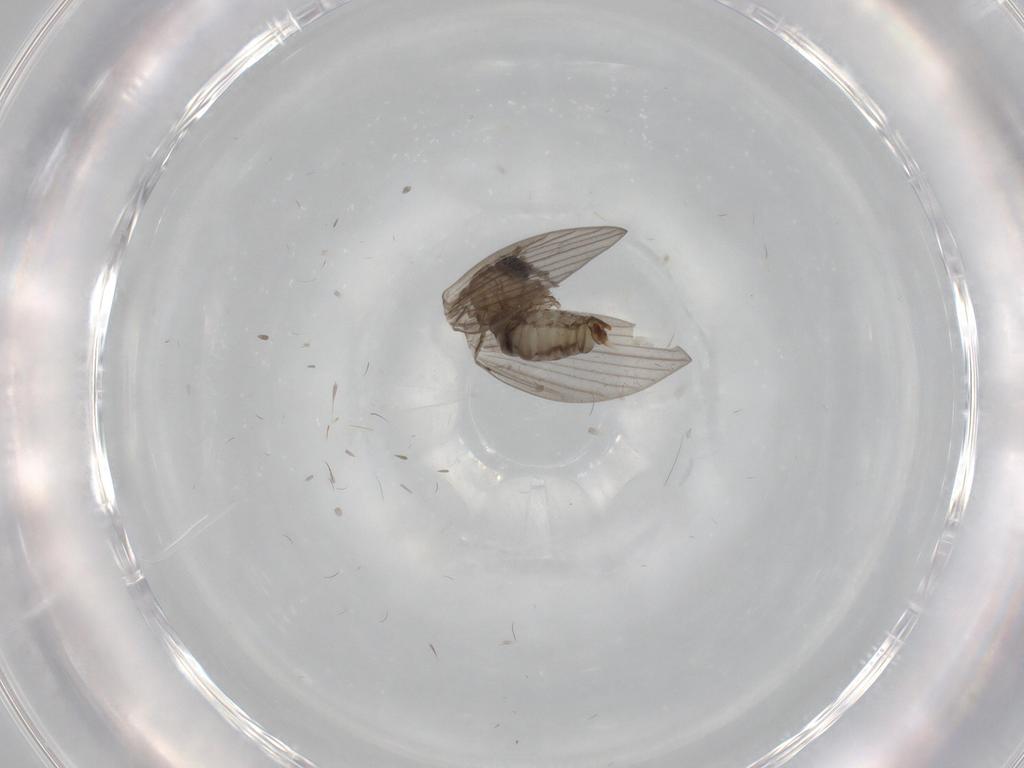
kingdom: Animalia
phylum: Arthropoda
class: Insecta
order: Diptera
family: Psychodidae
